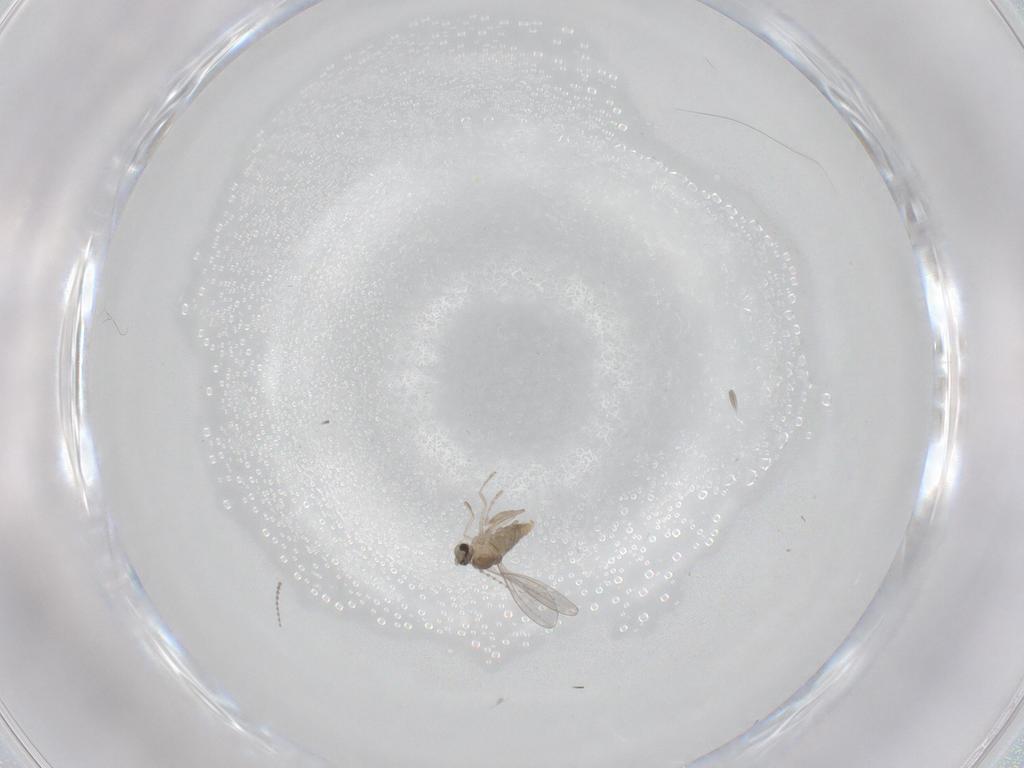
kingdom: Animalia
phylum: Arthropoda
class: Insecta
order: Diptera
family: Cecidomyiidae
